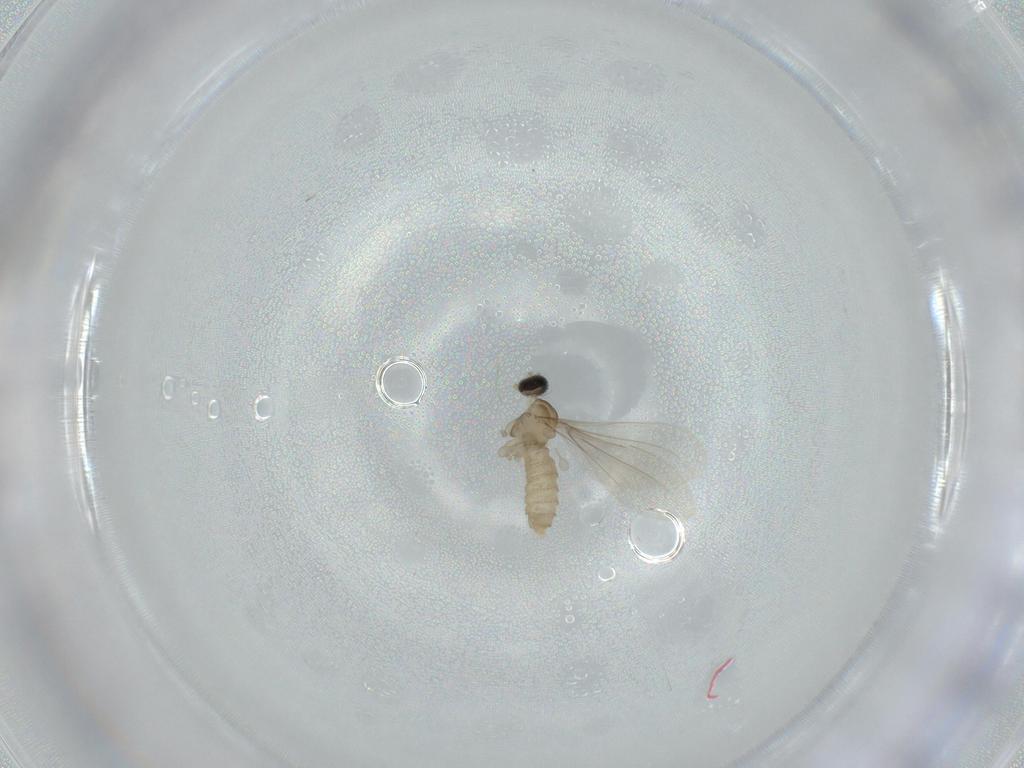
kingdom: Animalia
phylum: Arthropoda
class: Insecta
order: Diptera
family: Cecidomyiidae
